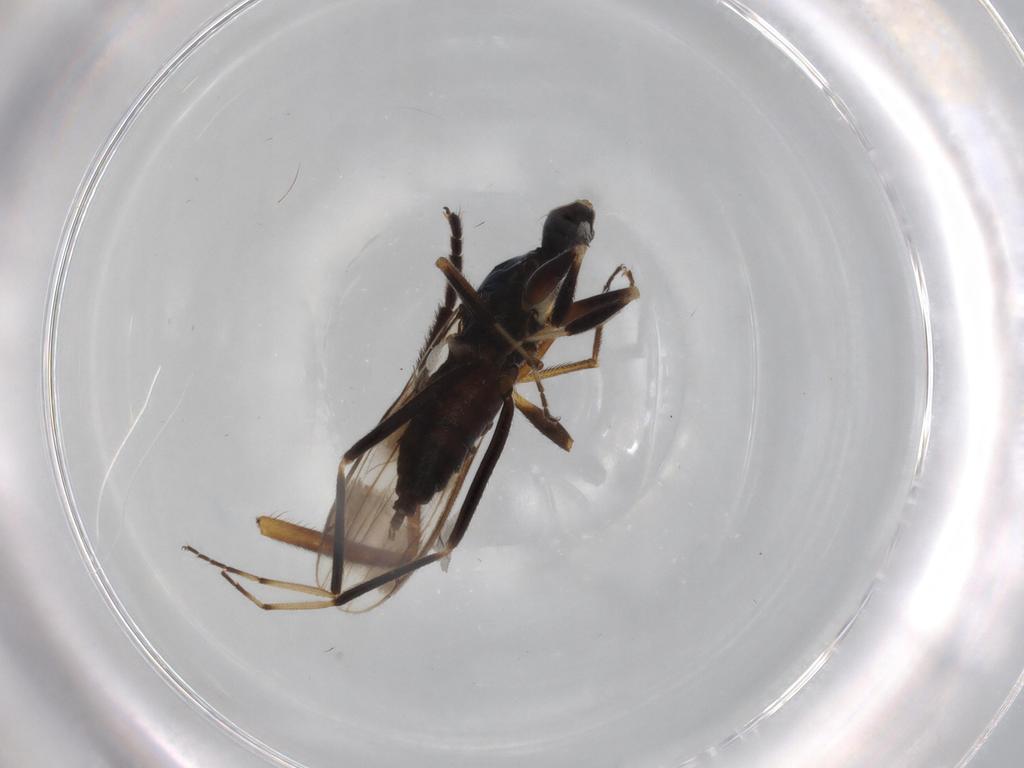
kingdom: Animalia
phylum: Arthropoda
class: Insecta
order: Diptera
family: Hybotidae
